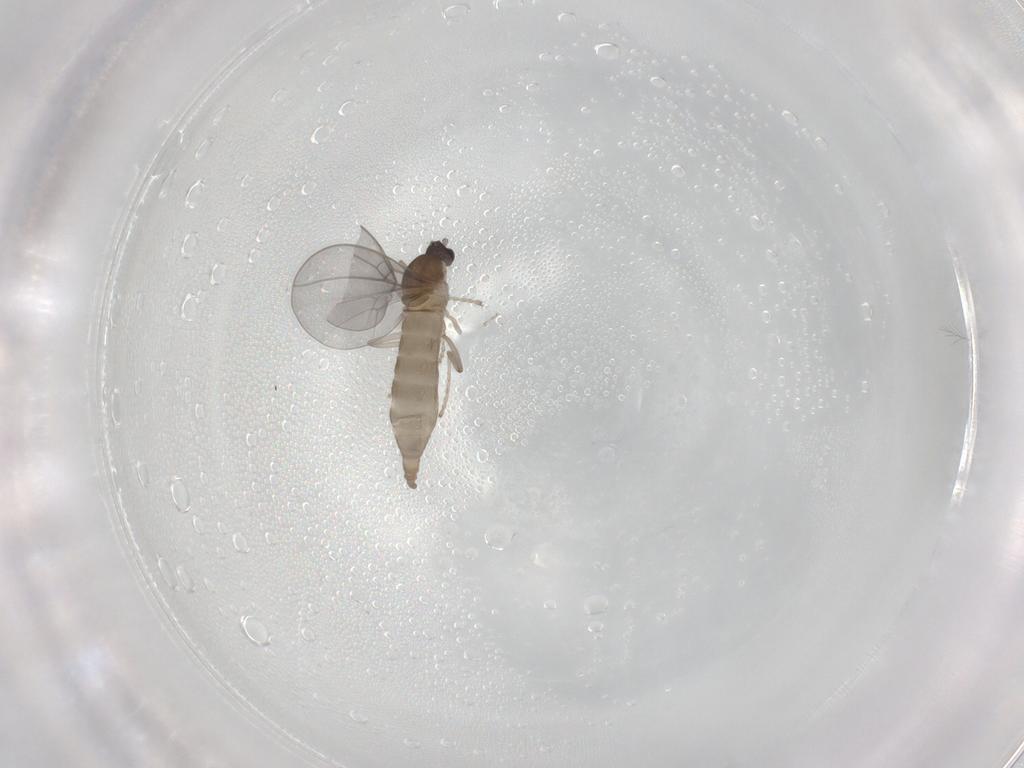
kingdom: Animalia
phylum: Arthropoda
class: Insecta
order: Diptera
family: Cecidomyiidae
